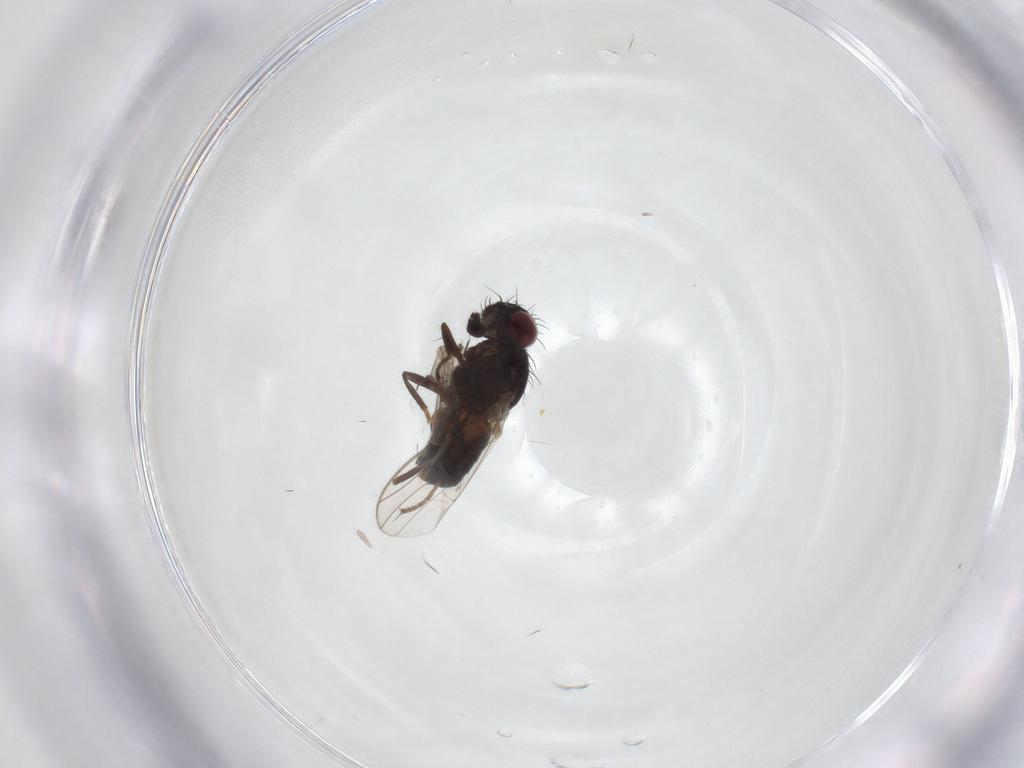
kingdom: Animalia
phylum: Arthropoda
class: Insecta
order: Diptera
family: Carnidae
